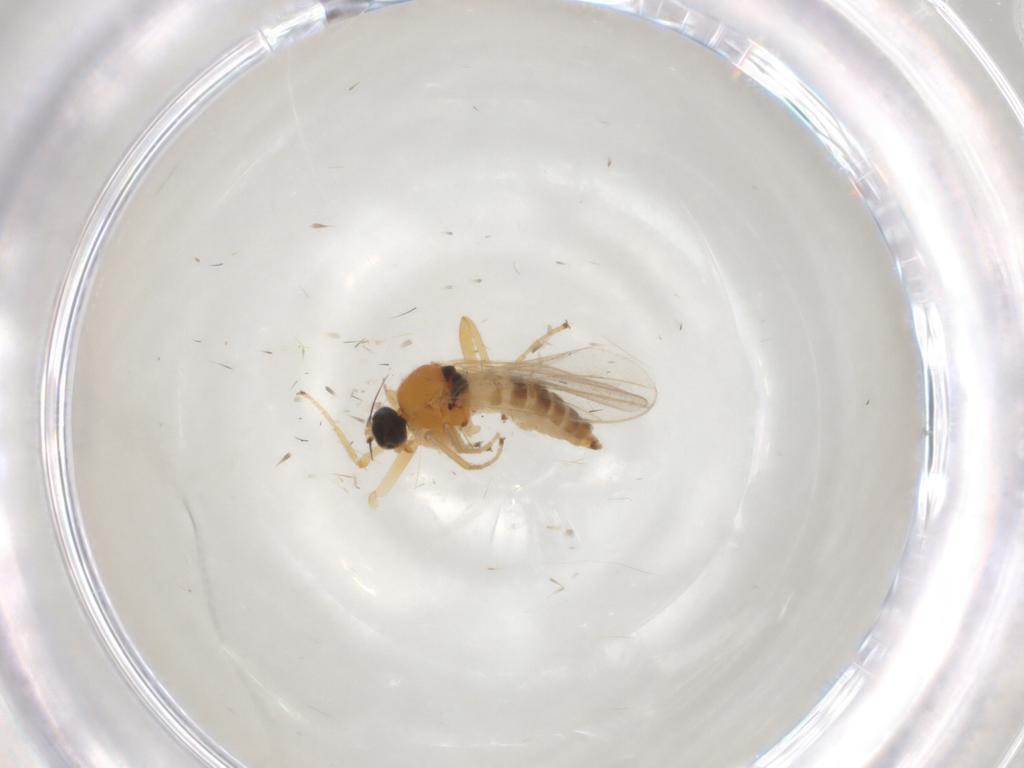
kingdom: Animalia
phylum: Arthropoda
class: Insecta
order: Diptera
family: Hybotidae
